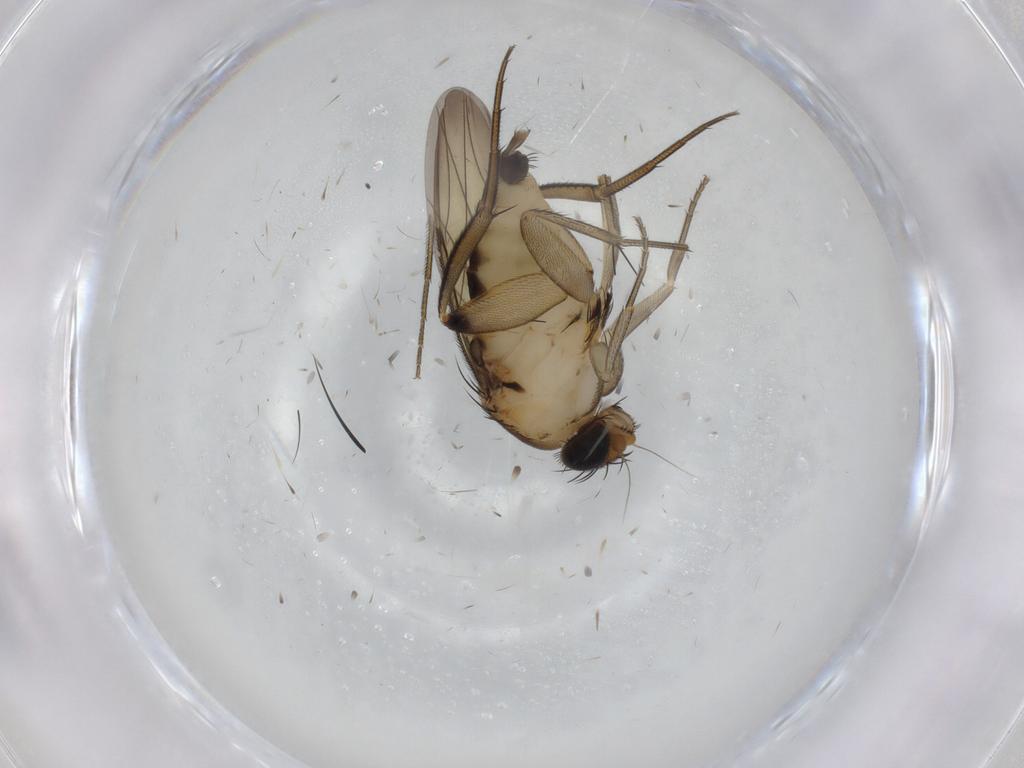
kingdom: Animalia
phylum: Arthropoda
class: Insecta
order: Diptera
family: Phoridae
